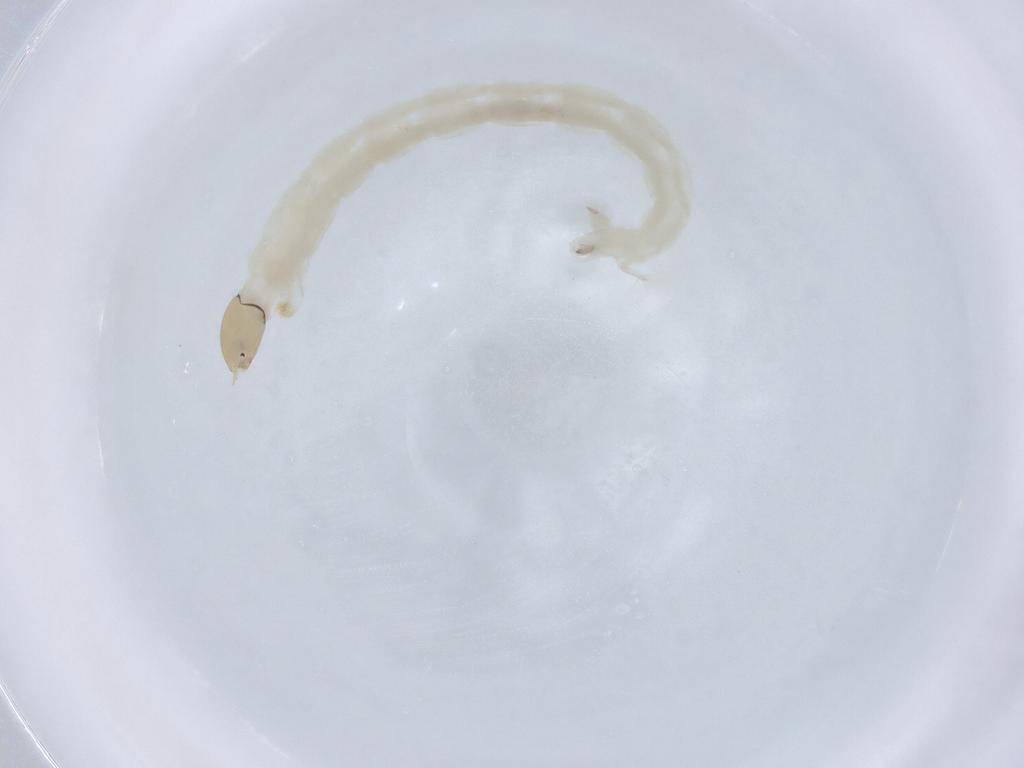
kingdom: Animalia
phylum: Arthropoda
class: Insecta
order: Diptera
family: Chironomidae
